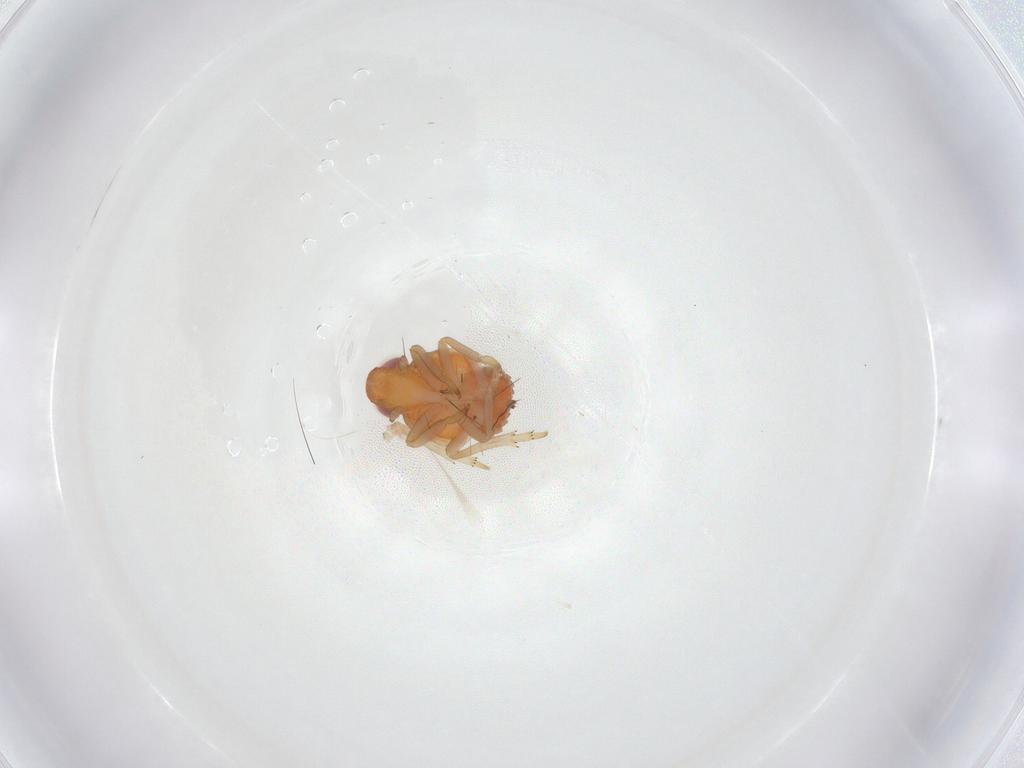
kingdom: Animalia
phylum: Arthropoda
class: Insecta
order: Hemiptera
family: Fulgoroidea_incertae_sedis
